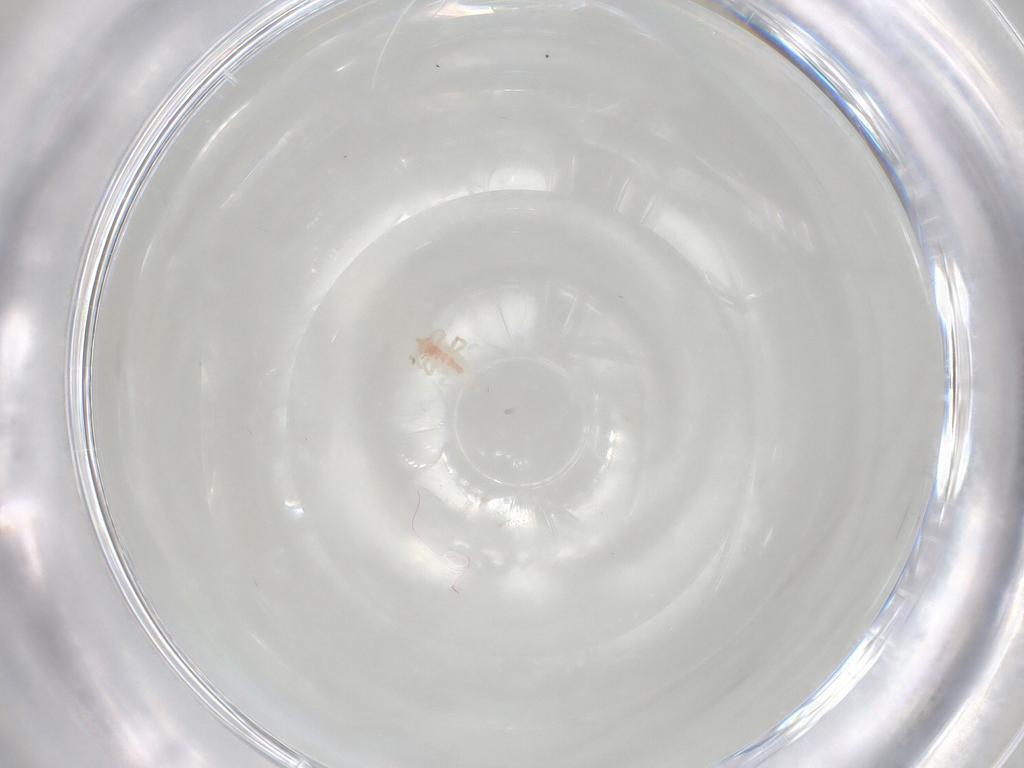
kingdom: Animalia
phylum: Arthropoda
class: Insecta
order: Neuroptera
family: Coniopterygidae
